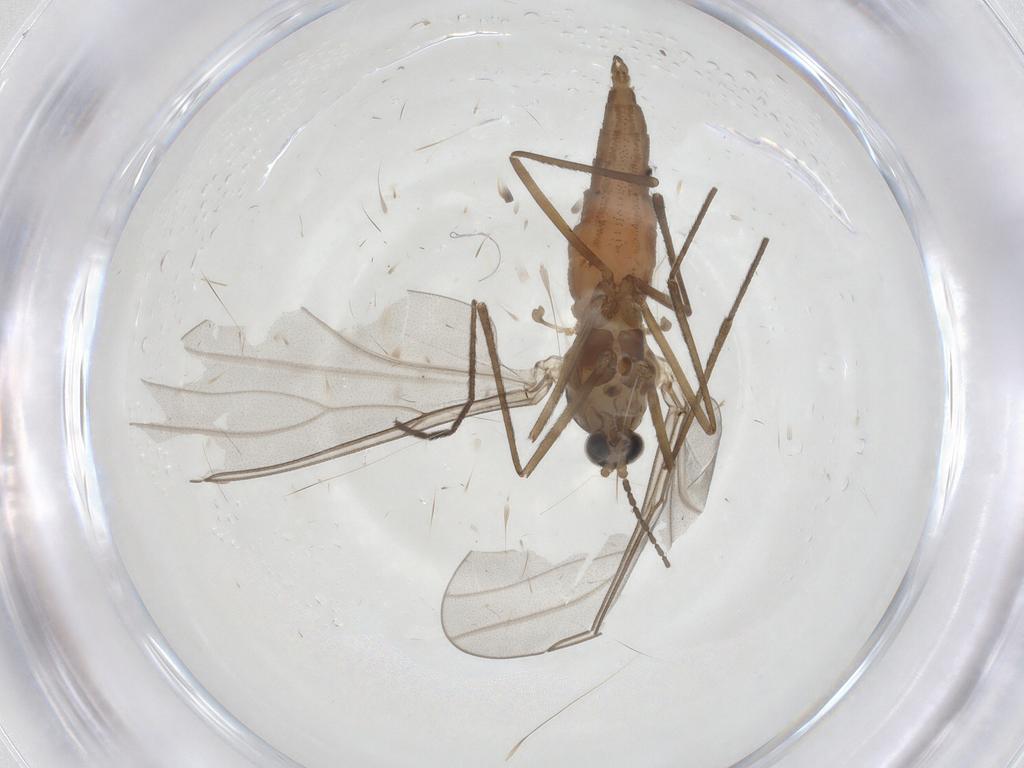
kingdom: Animalia
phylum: Arthropoda
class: Insecta
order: Diptera
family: Cecidomyiidae
